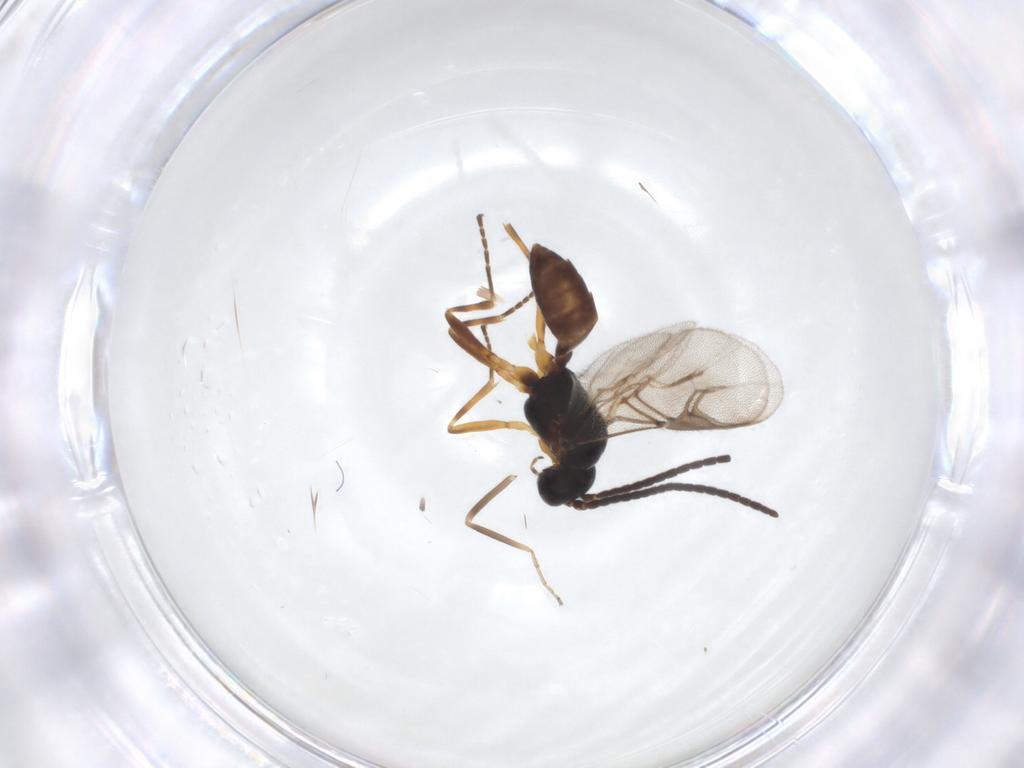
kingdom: Animalia
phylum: Arthropoda
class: Insecta
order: Hymenoptera
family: Braconidae
